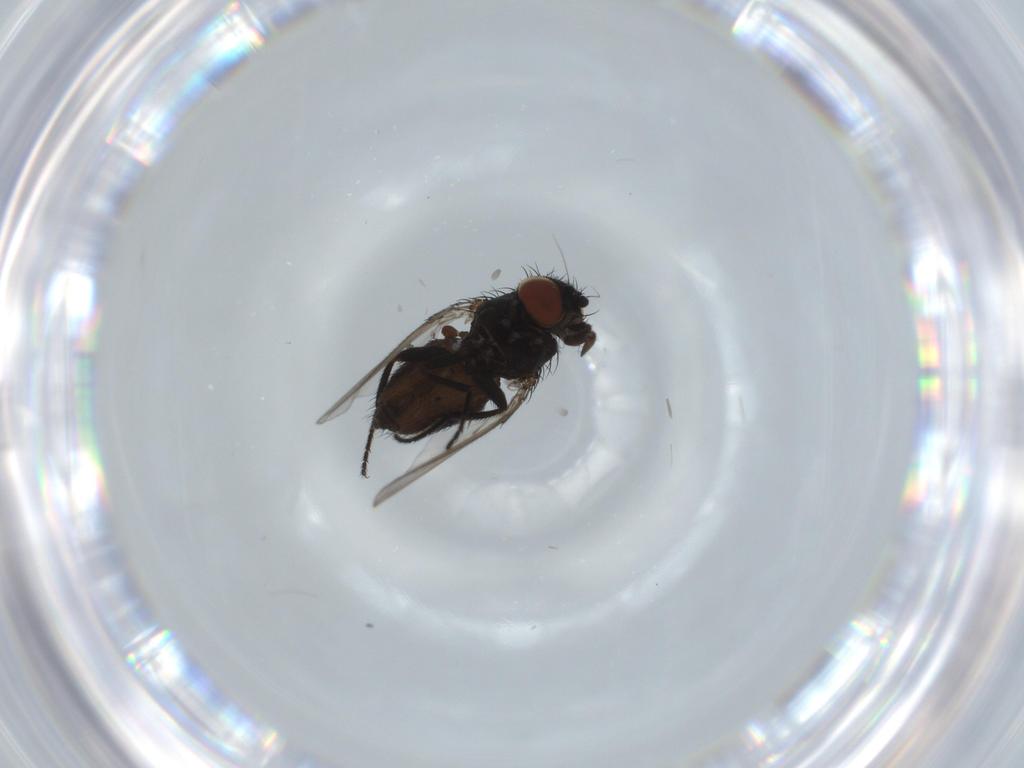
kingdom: Animalia
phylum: Arthropoda
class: Insecta
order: Diptera
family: Milichiidae
